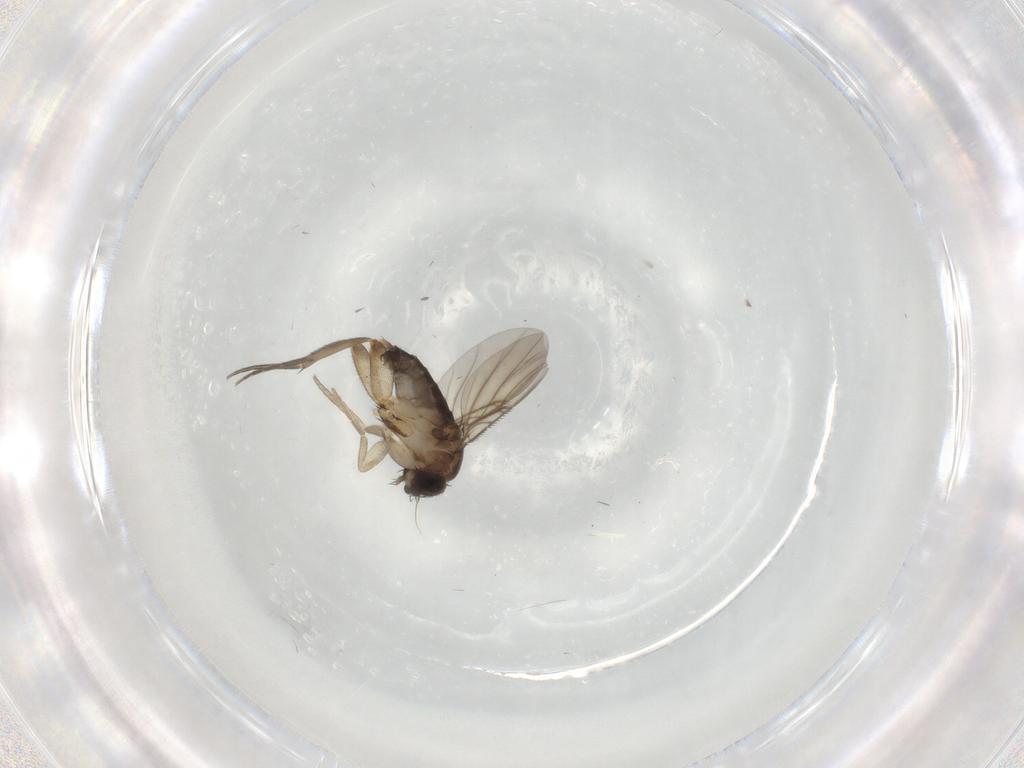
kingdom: Animalia
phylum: Arthropoda
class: Insecta
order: Diptera
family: Phoridae
